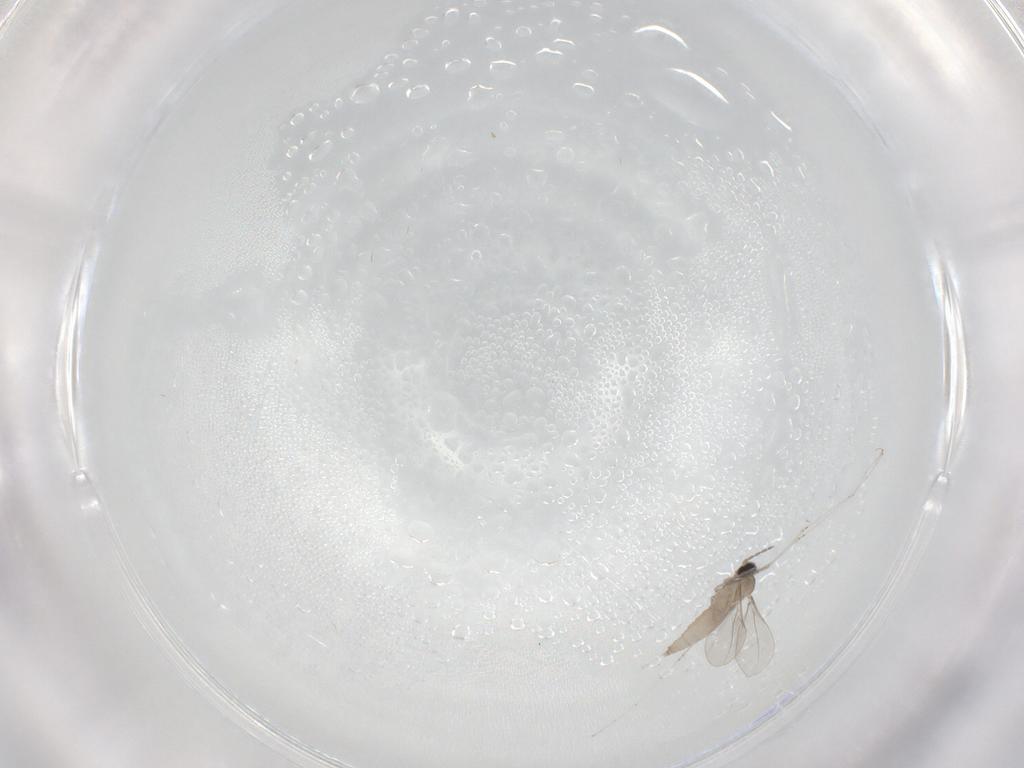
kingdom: Animalia
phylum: Arthropoda
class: Insecta
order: Diptera
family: Cecidomyiidae
